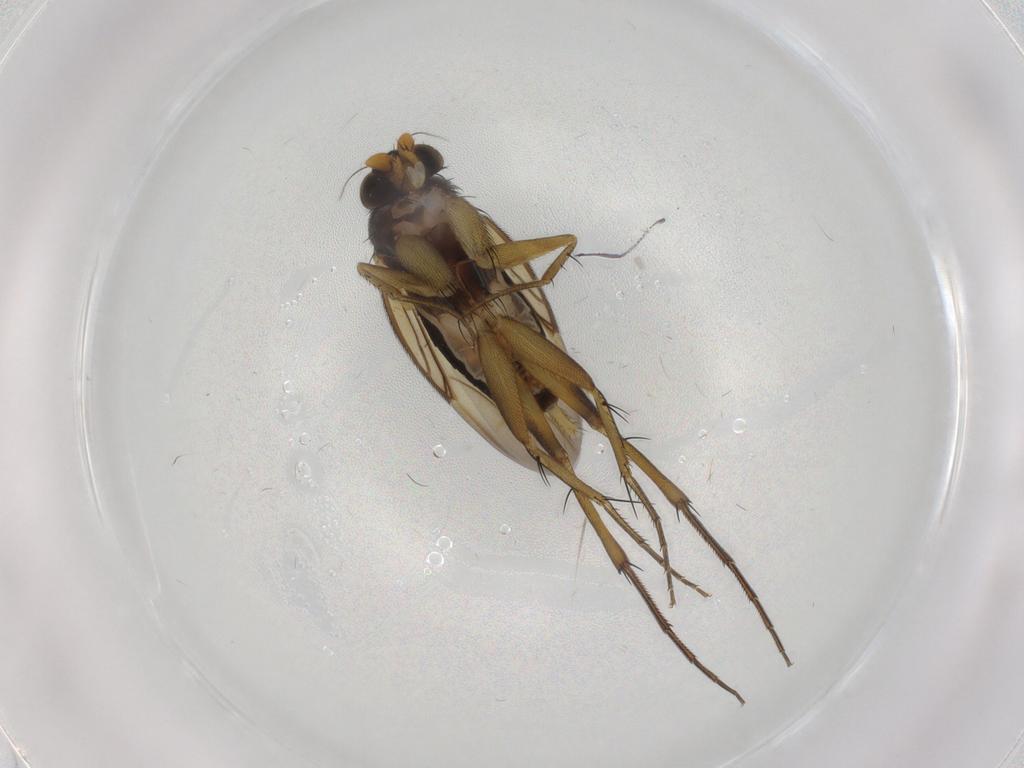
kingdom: Animalia
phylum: Arthropoda
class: Insecta
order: Diptera
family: Phoridae
